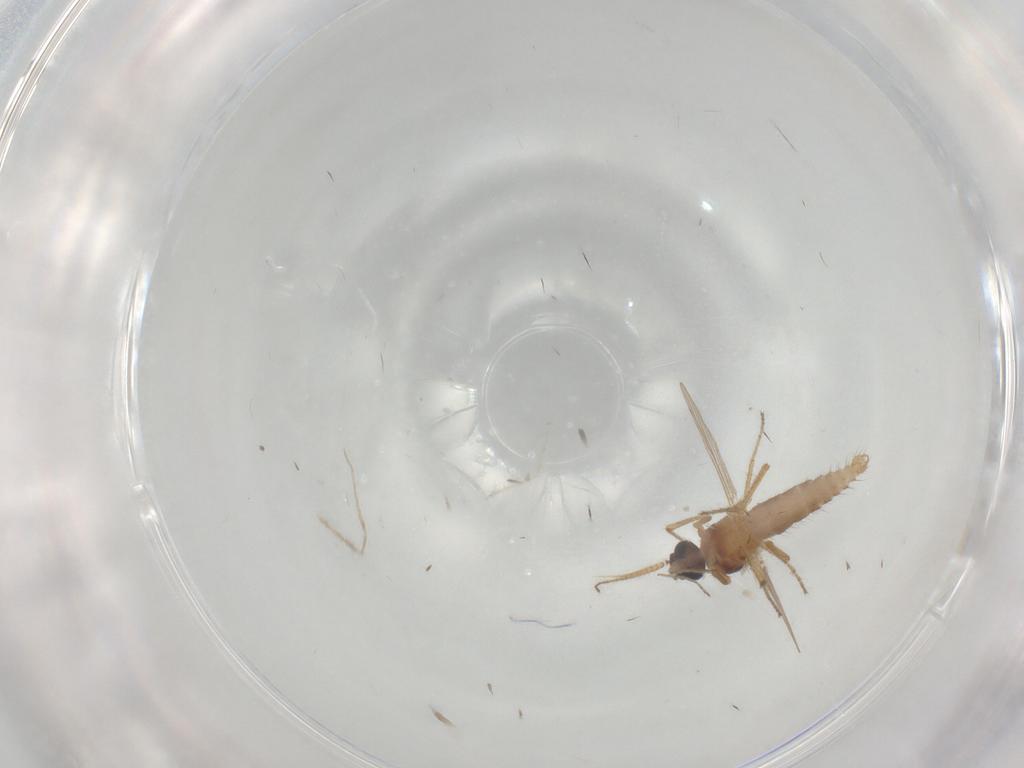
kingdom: Animalia
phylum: Arthropoda
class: Insecta
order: Diptera
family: Ceratopogonidae
